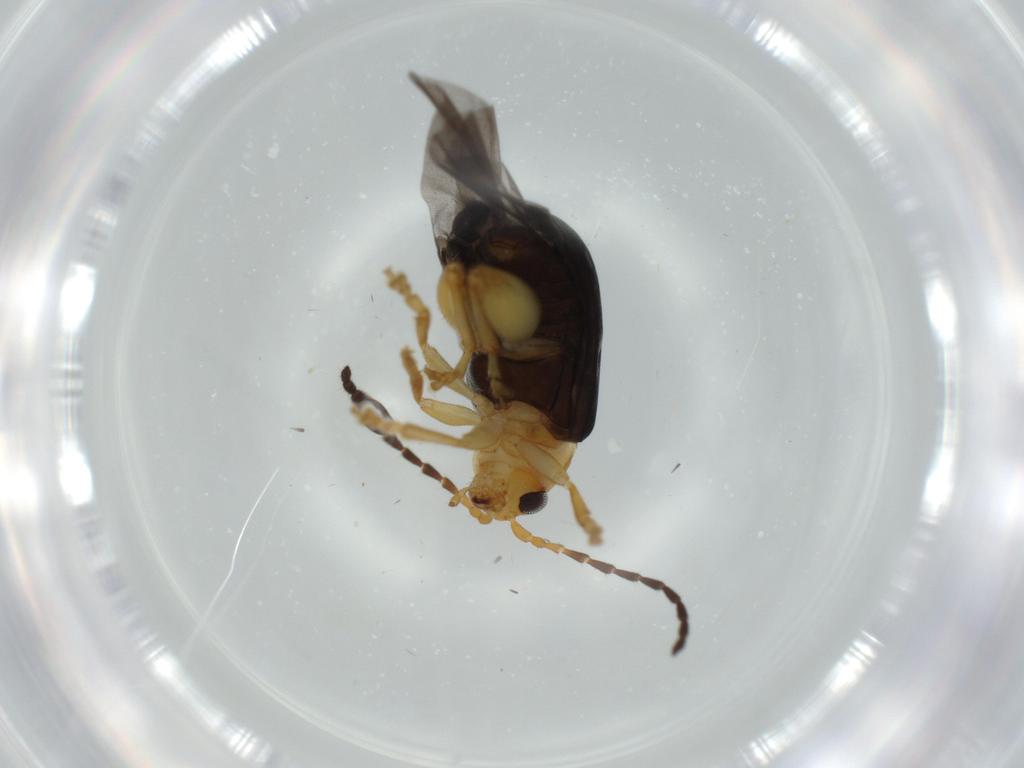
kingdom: Animalia
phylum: Arthropoda
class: Insecta
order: Coleoptera
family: Chrysomelidae
